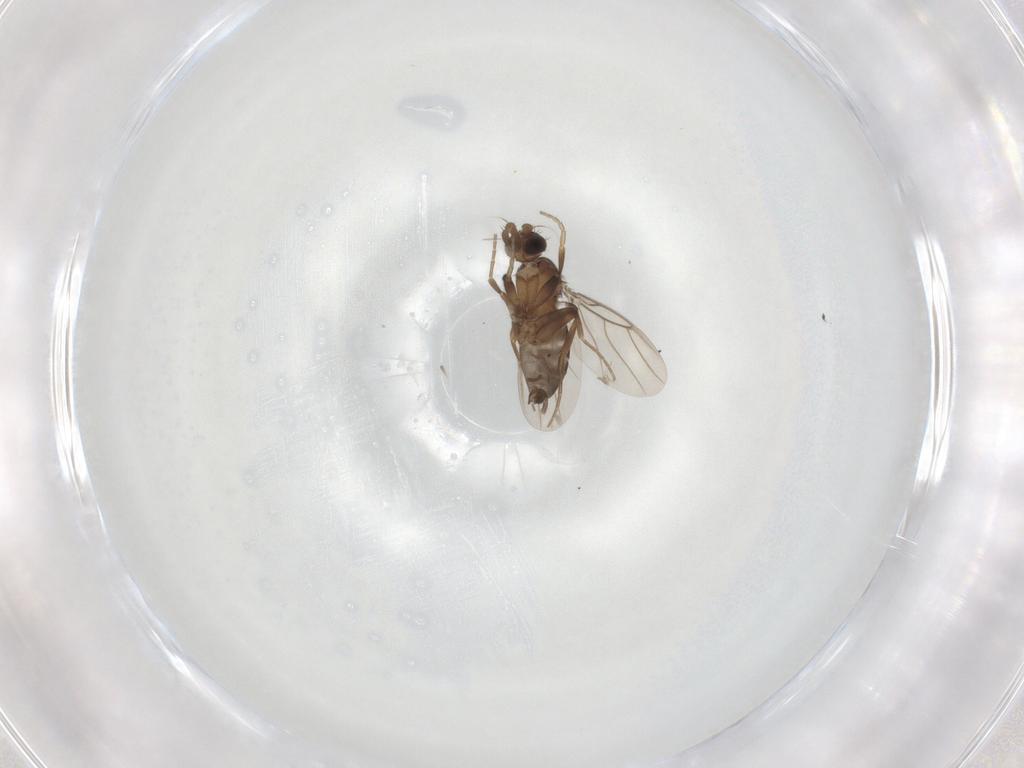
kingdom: Animalia
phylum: Arthropoda
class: Insecta
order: Diptera
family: Phoridae
